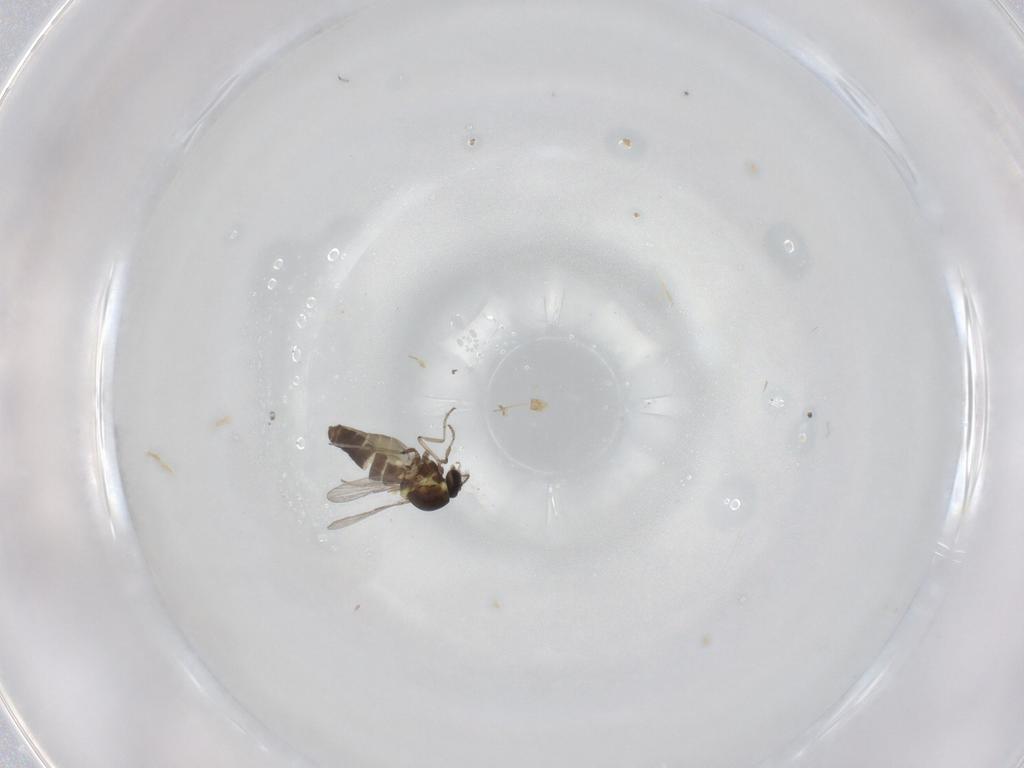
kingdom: Animalia
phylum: Arthropoda
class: Insecta
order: Diptera
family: Ceratopogonidae
